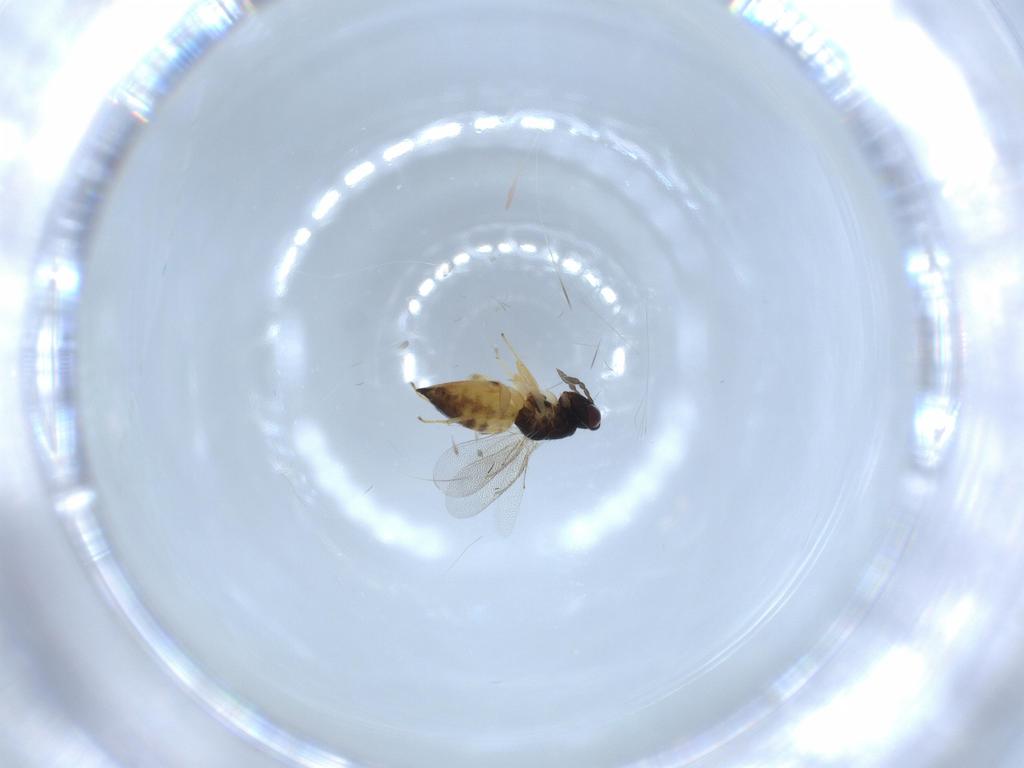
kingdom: Animalia
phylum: Arthropoda
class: Insecta
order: Hymenoptera
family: Eulophidae
